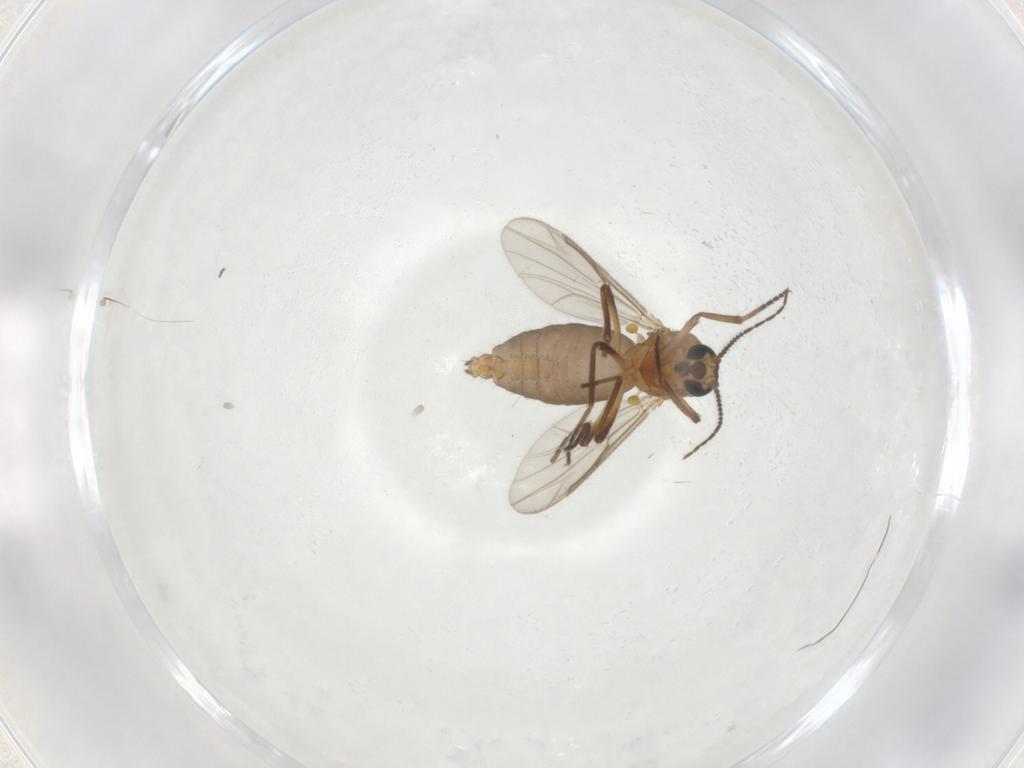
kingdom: Animalia
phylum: Arthropoda
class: Insecta
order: Diptera
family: Ceratopogonidae
